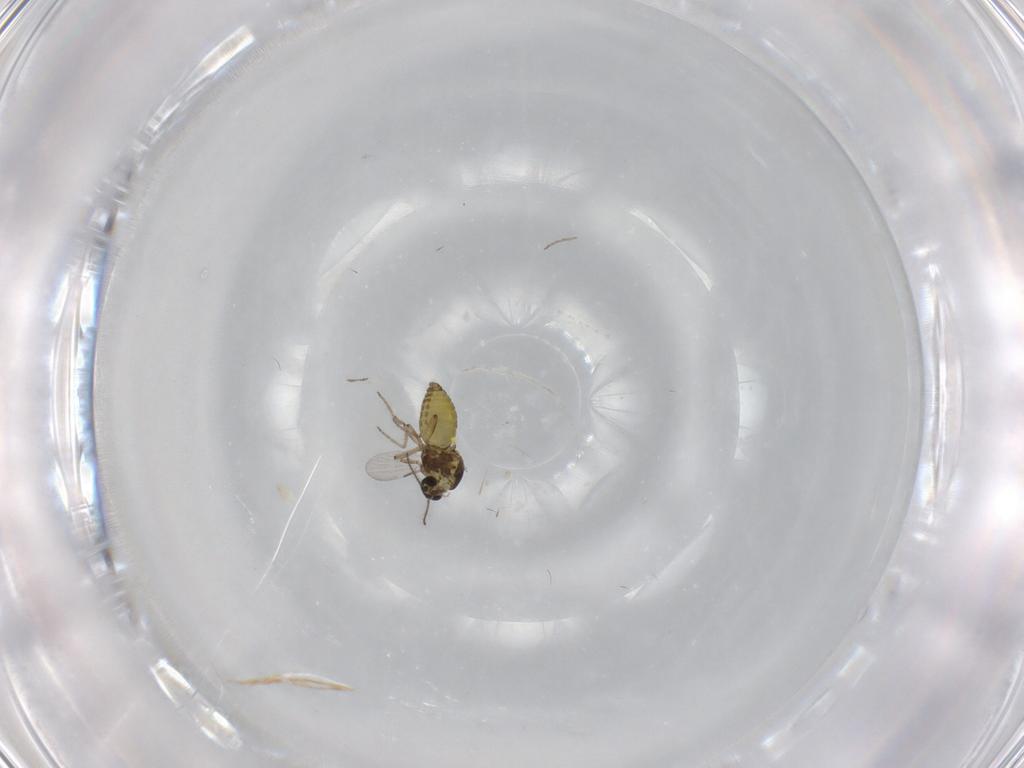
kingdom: Animalia
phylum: Arthropoda
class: Insecta
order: Diptera
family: Ceratopogonidae
